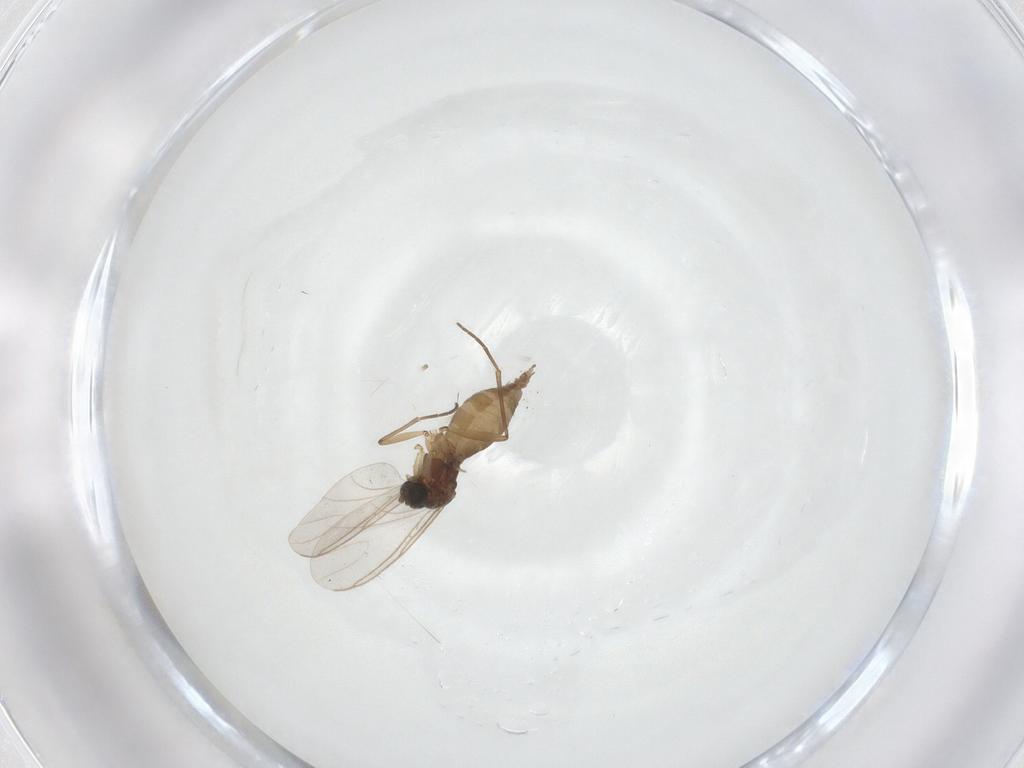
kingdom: Animalia
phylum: Arthropoda
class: Insecta
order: Diptera
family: Sciaridae
